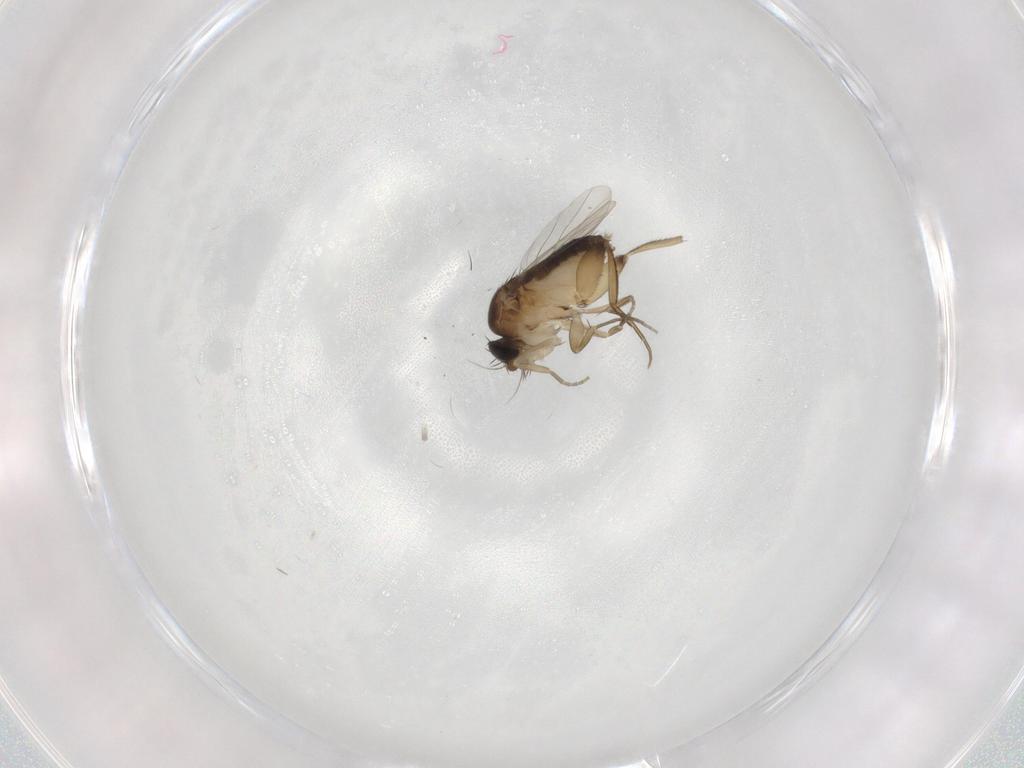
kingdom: Animalia
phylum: Arthropoda
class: Insecta
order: Diptera
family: Phoridae
